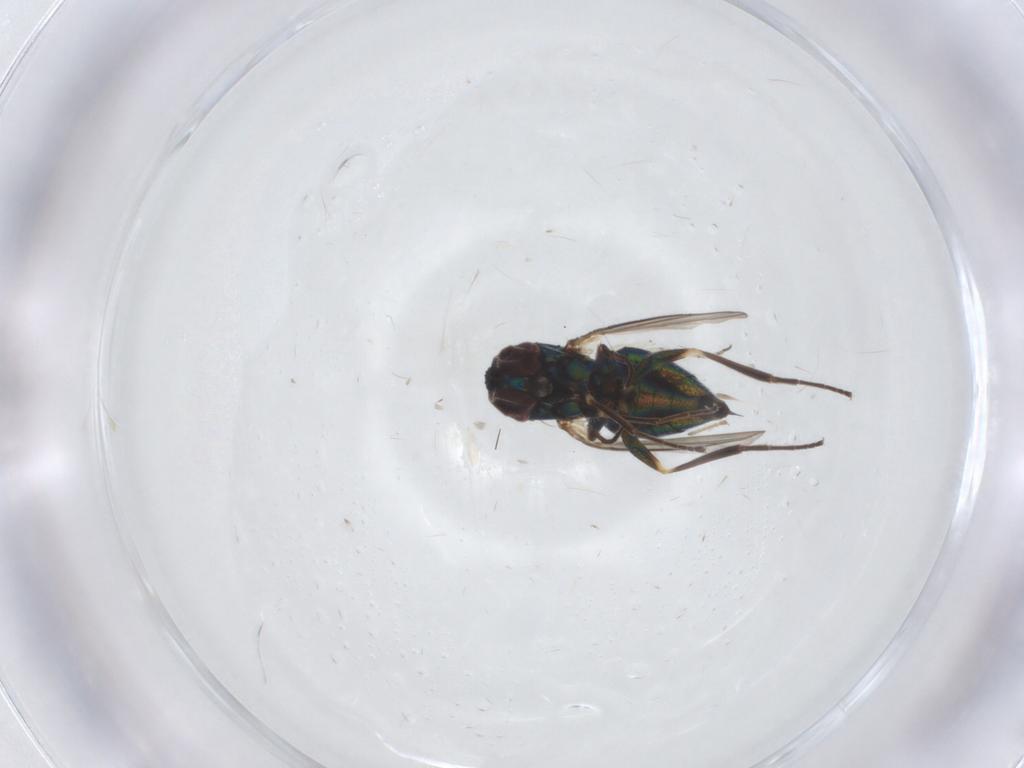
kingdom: Animalia
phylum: Arthropoda
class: Insecta
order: Diptera
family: Dolichopodidae
